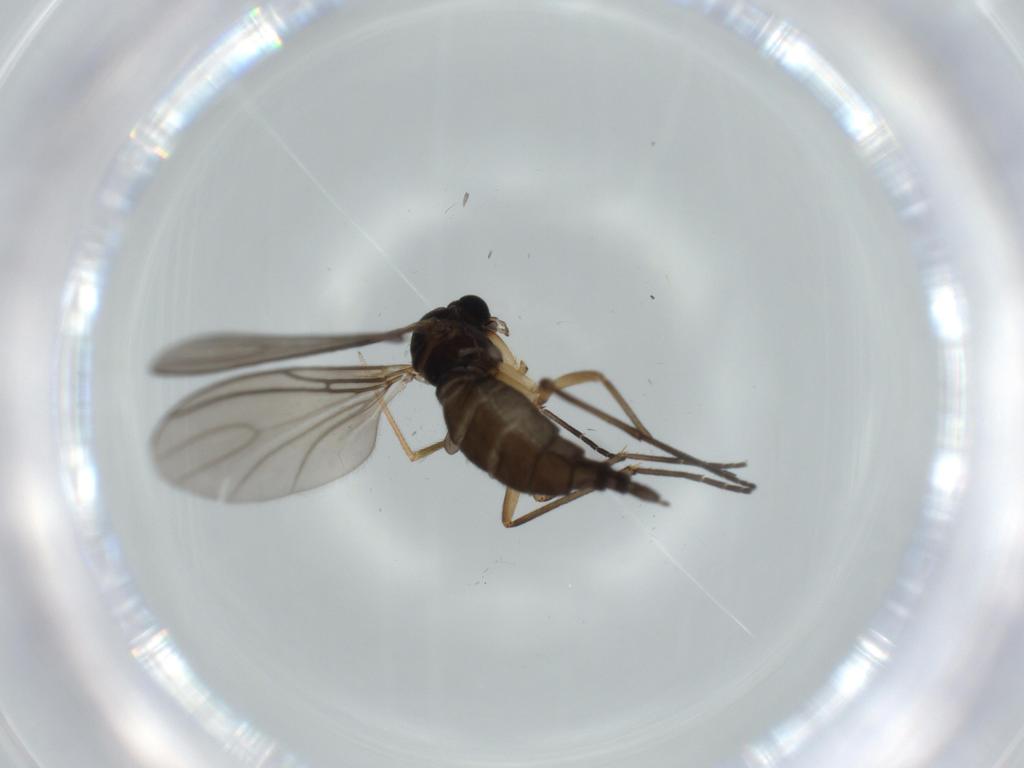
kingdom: Animalia
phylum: Arthropoda
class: Insecta
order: Diptera
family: Sciaridae
